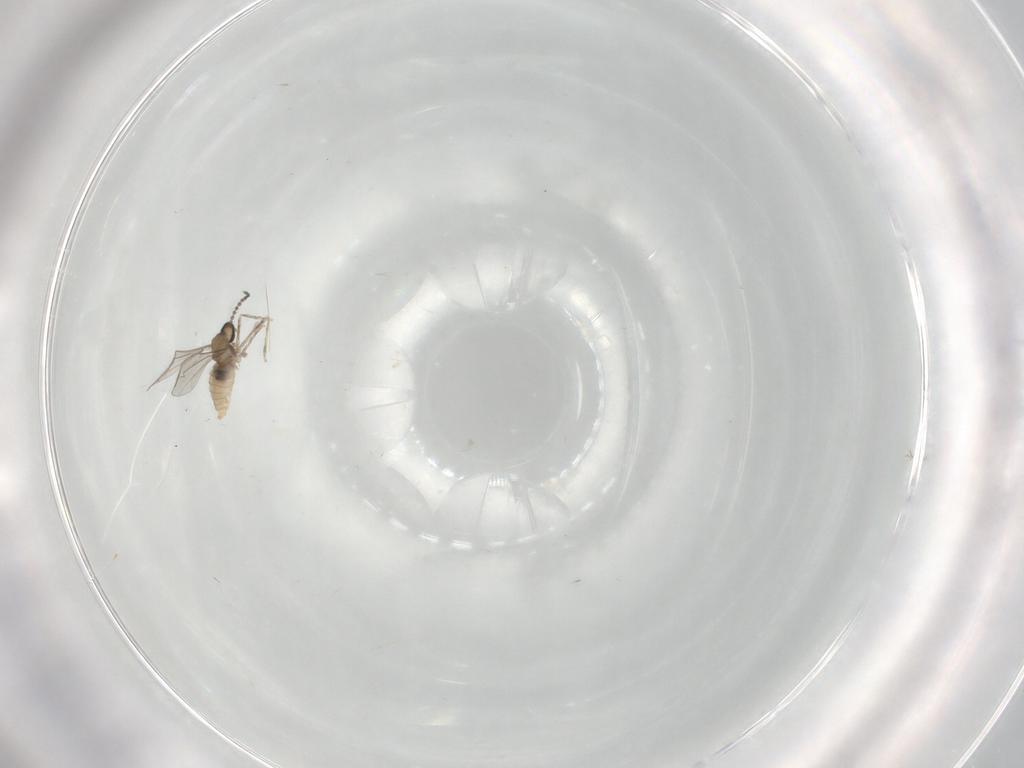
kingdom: Animalia
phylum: Arthropoda
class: Insecta
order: Diptera
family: Cecidomyiidae
